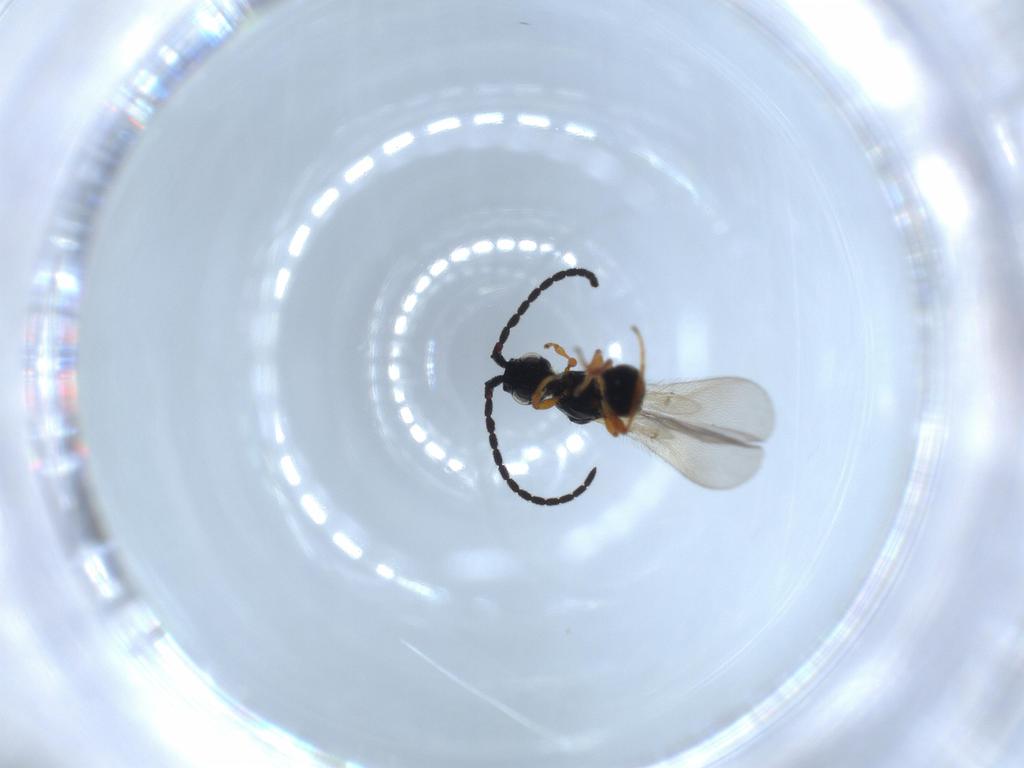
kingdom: Animalia
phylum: Arthropoda
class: Insecta
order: Hymenoptera
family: Diapriidae
